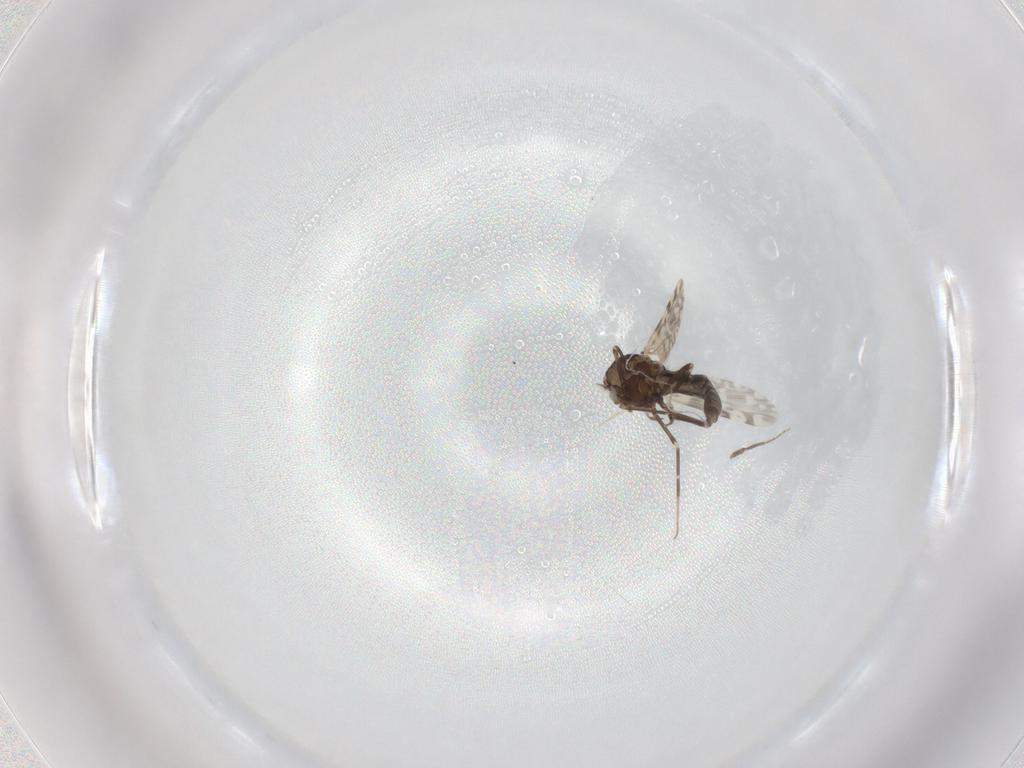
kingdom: Animalia
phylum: Arthropoda
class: Insecta
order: Diptera
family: Ceratopogonidae
